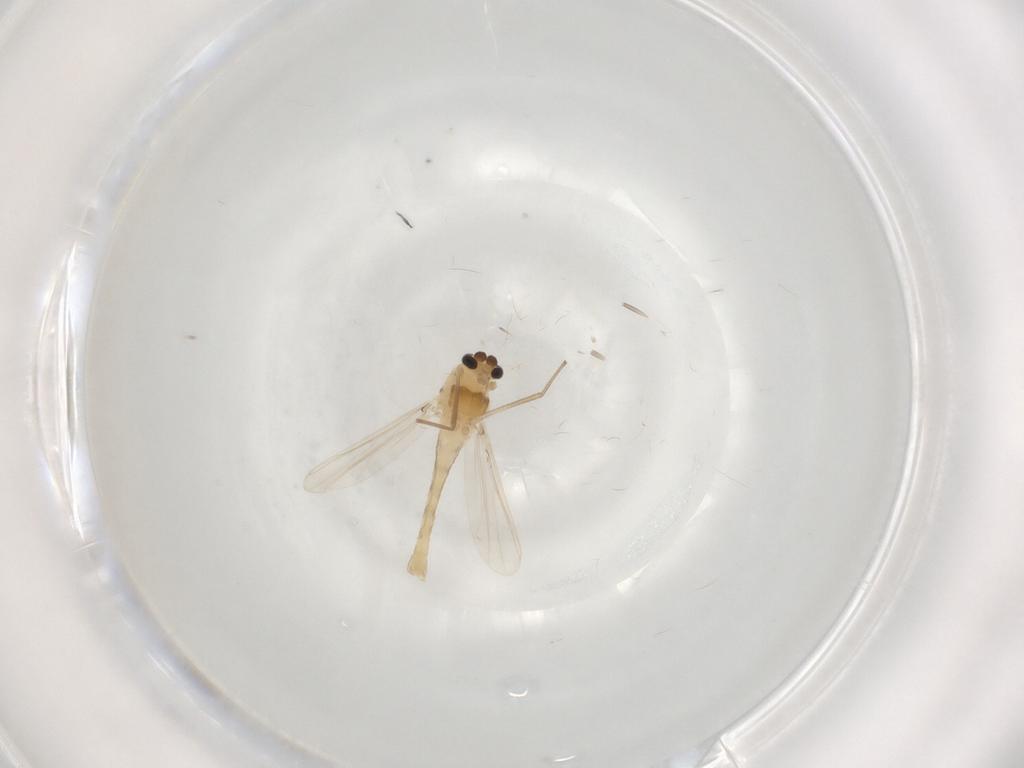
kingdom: Animalia
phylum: Arthropoda
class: Insecta
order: Diptera
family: Chironomidae
